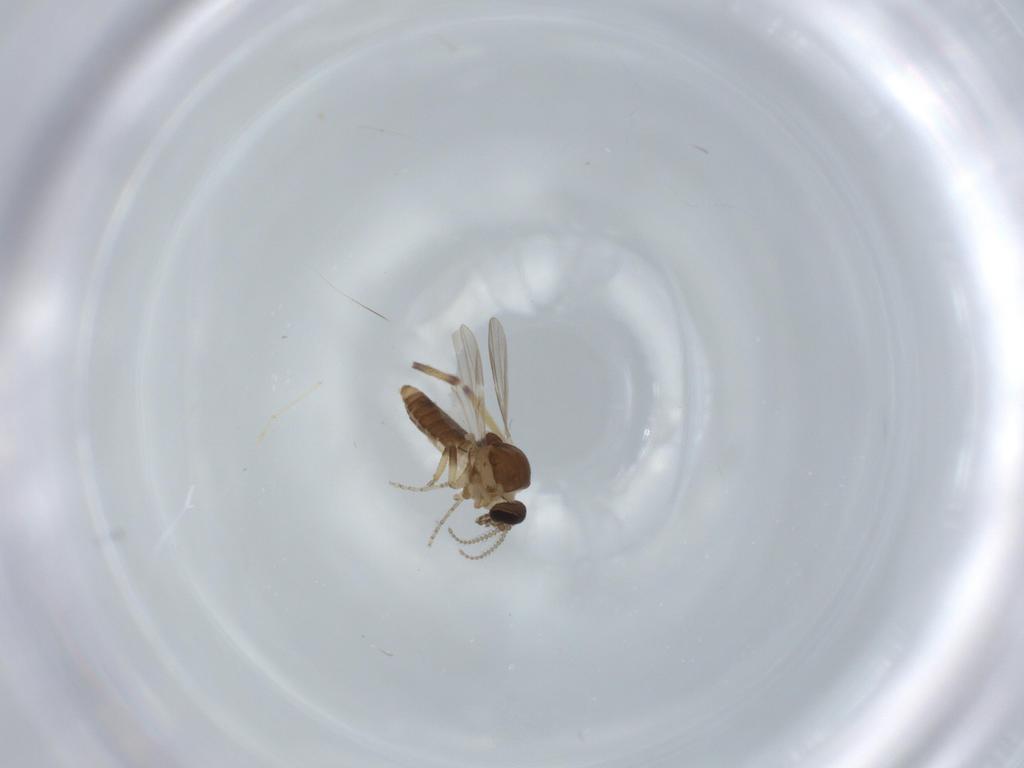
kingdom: Animalia
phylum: Arthropoda
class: Insecta
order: Diptera
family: Ceratopogonidae
